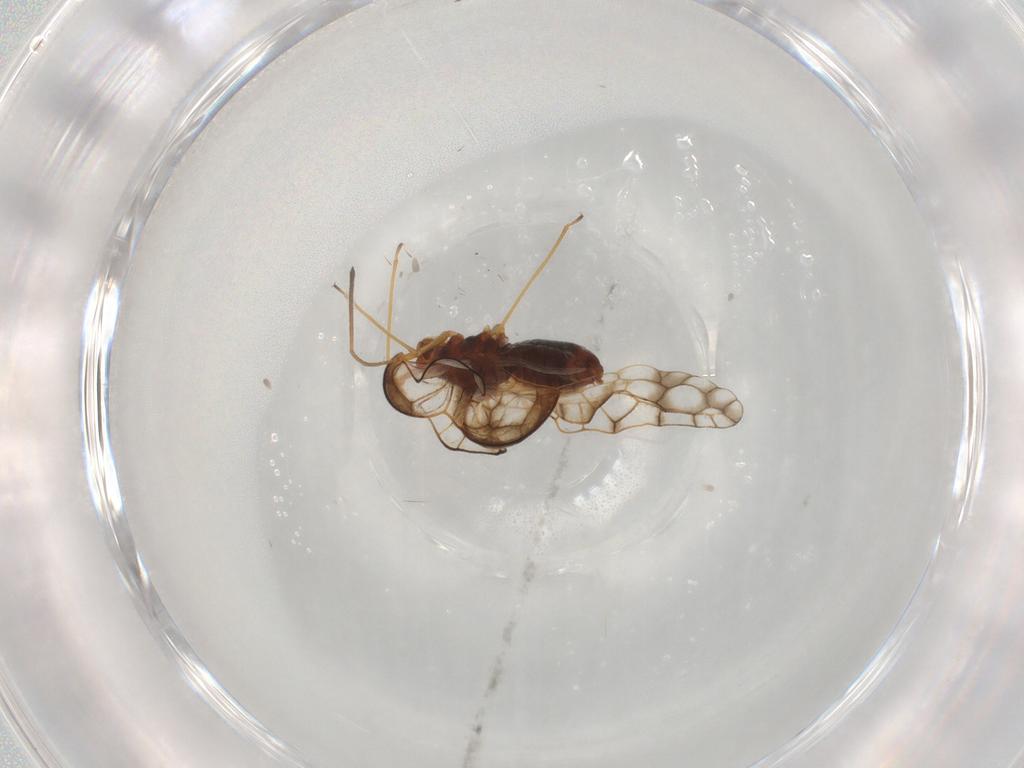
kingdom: Animalia
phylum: Arthropoda
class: Insecta
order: Hemiptera
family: Tingidae
